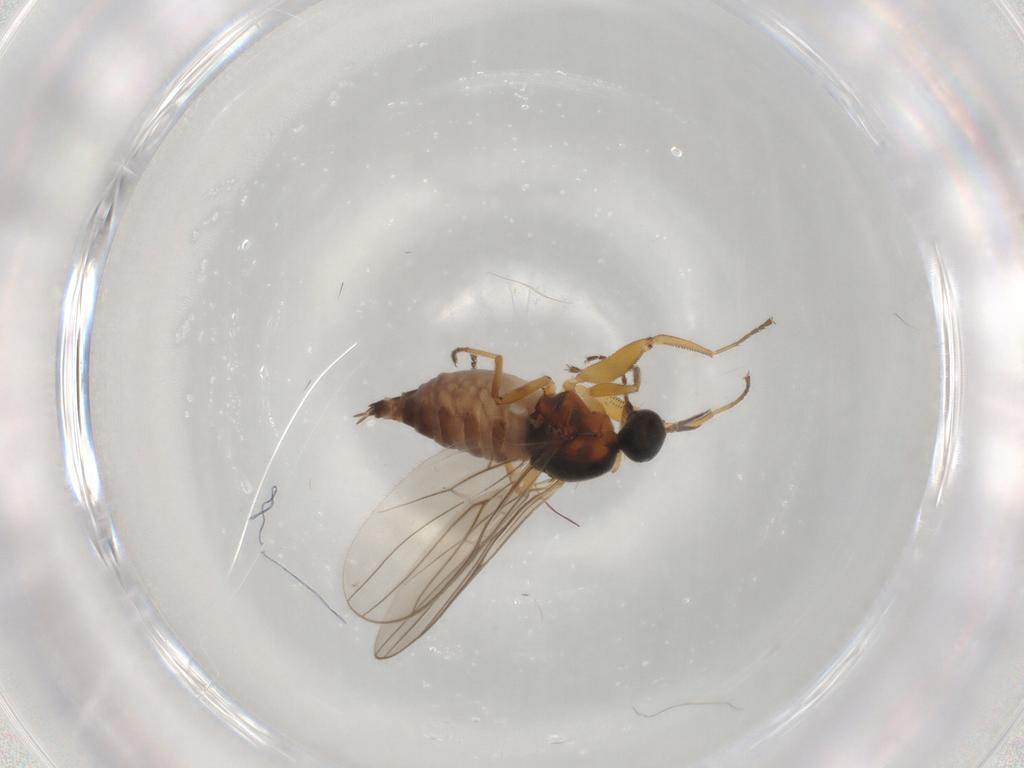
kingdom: Animalia
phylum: Arthropoda
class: Insecta
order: Diptera
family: Hybotidae
